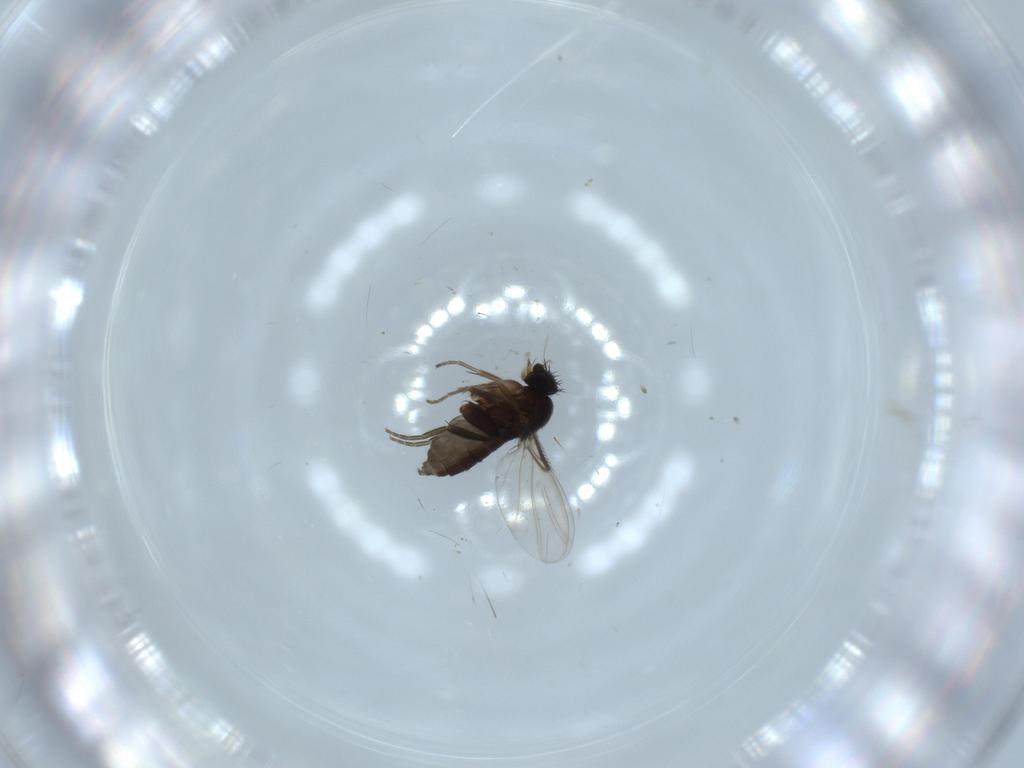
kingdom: Animalia
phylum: Arthropoda
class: Insecta
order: Diptera
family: Phoridae
